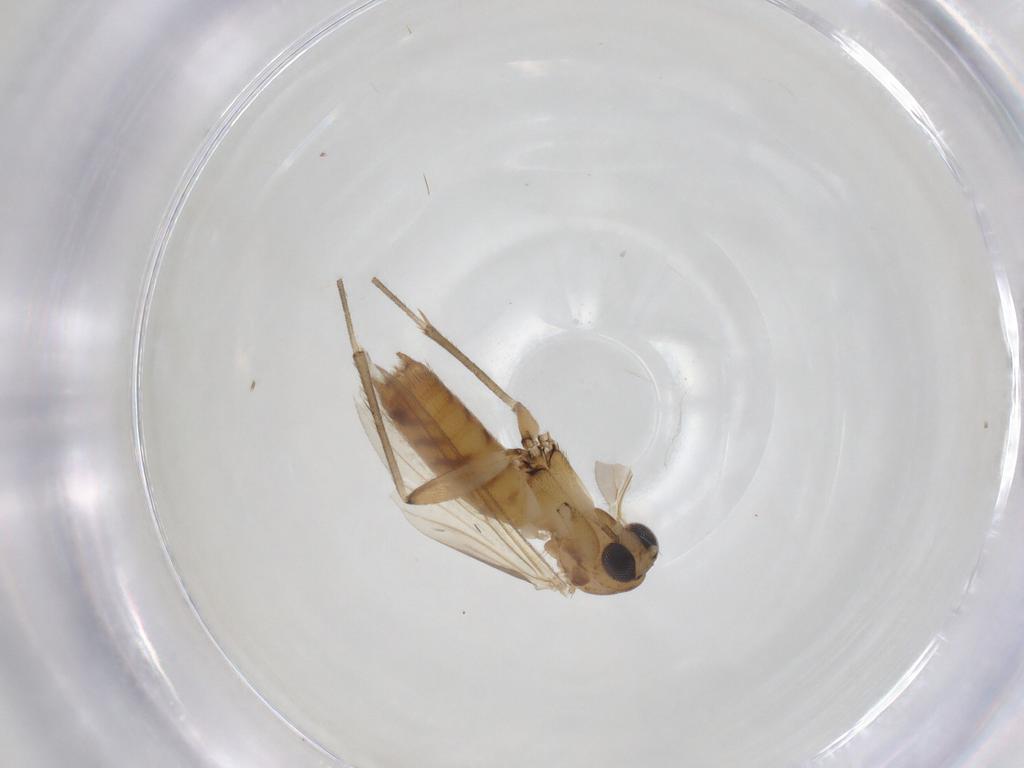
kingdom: Animalia
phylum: Arthropoda
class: Insecta
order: Diptera
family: Mycetophilidae
